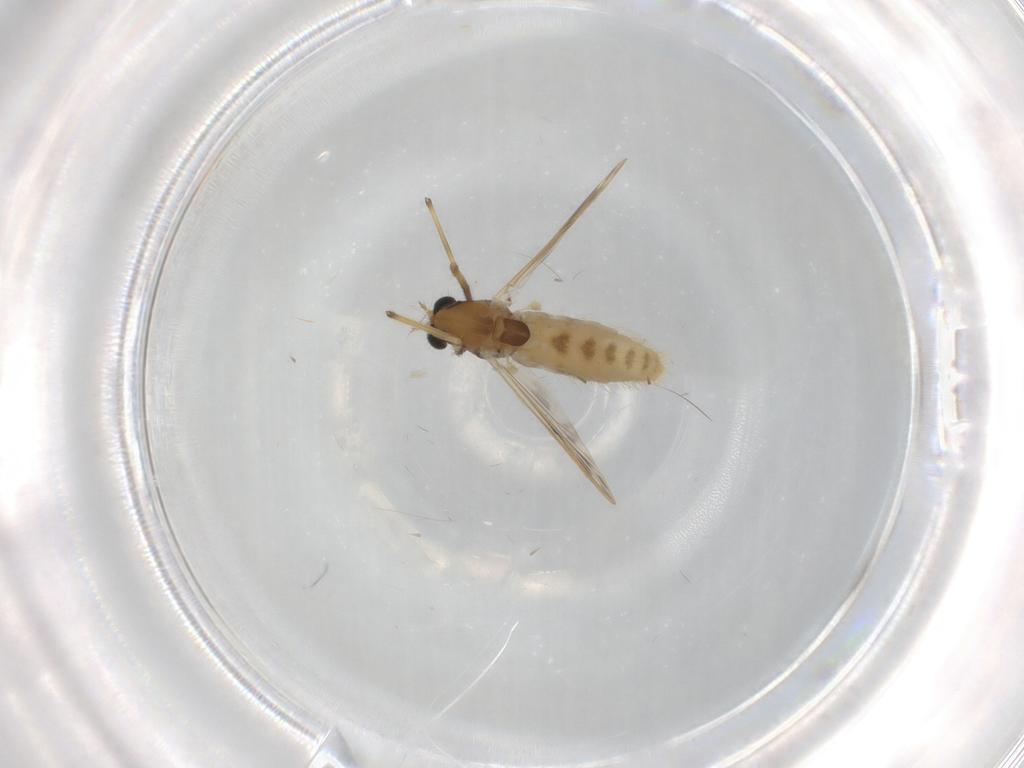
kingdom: Animalia
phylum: Arthropoda
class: Insecta
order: Diptera
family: Chironomidae
